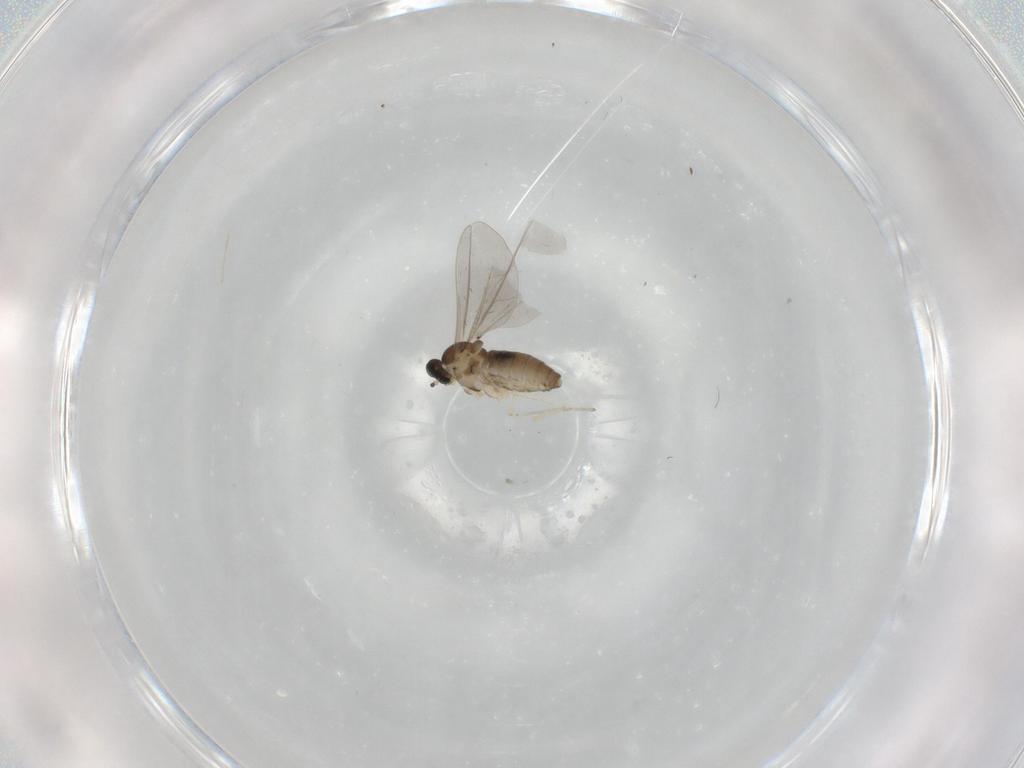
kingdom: Animalia
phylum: Arthropoda
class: Insecta
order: Diptera
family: Cecidomyiidae
